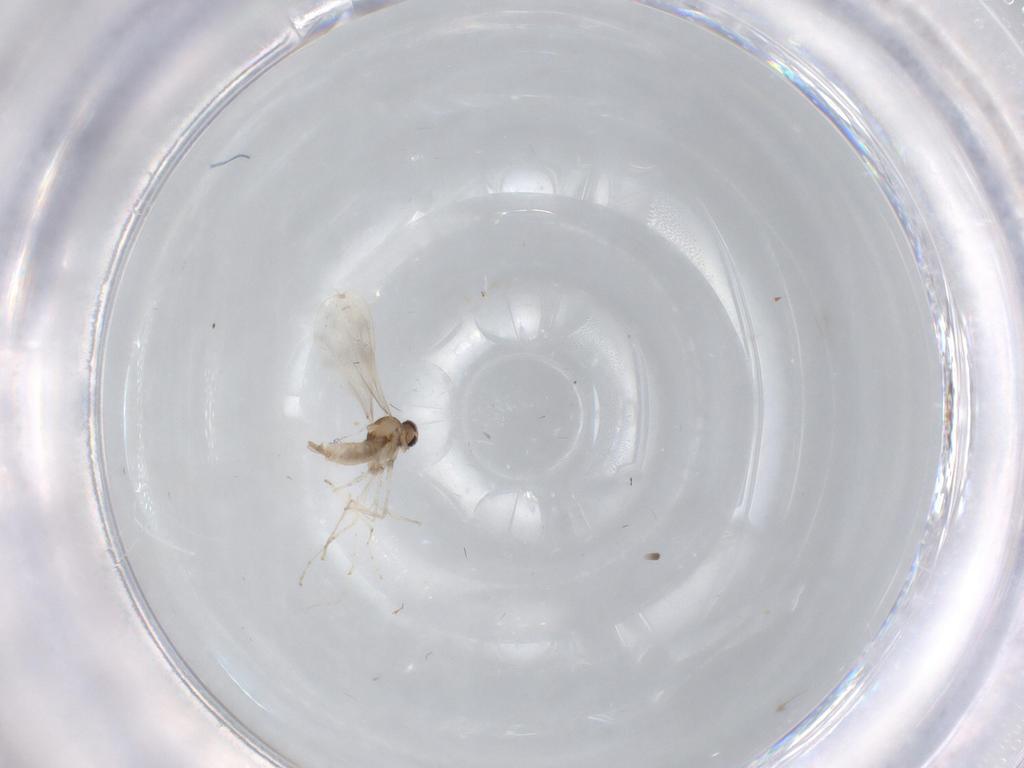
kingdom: Animalia
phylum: Arthropoda
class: Insecta
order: Diptera
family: Cecidomyiidae
